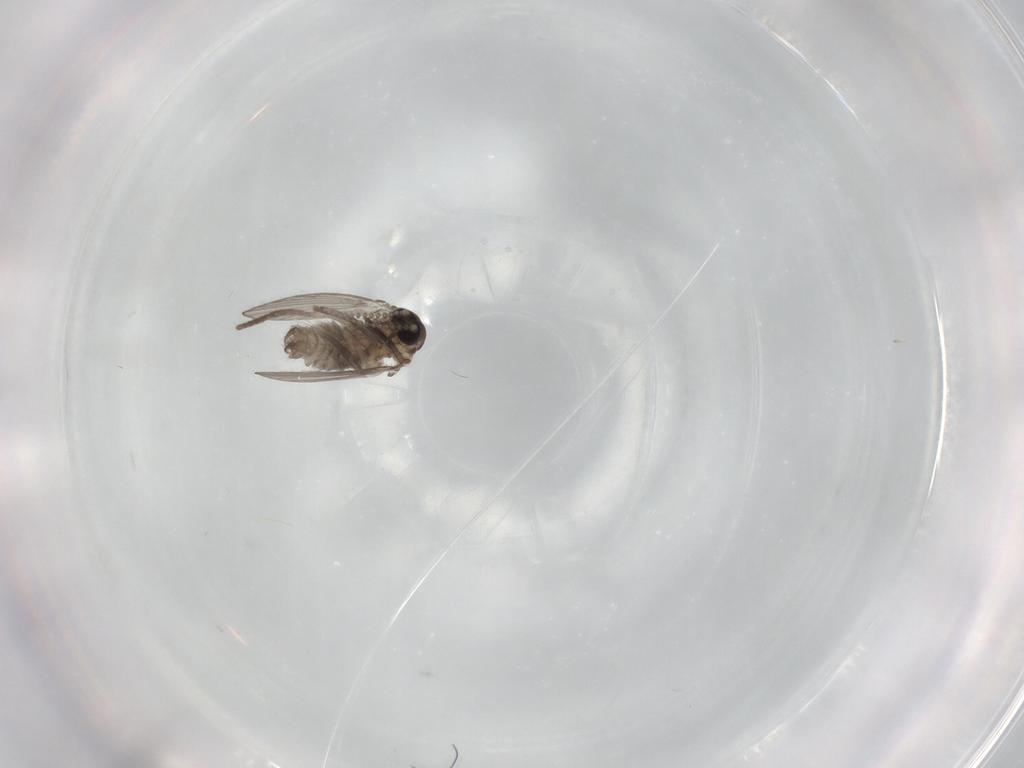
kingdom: Animalia
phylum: Arthropoda
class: Insecta
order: Diptera
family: Psychodidae
